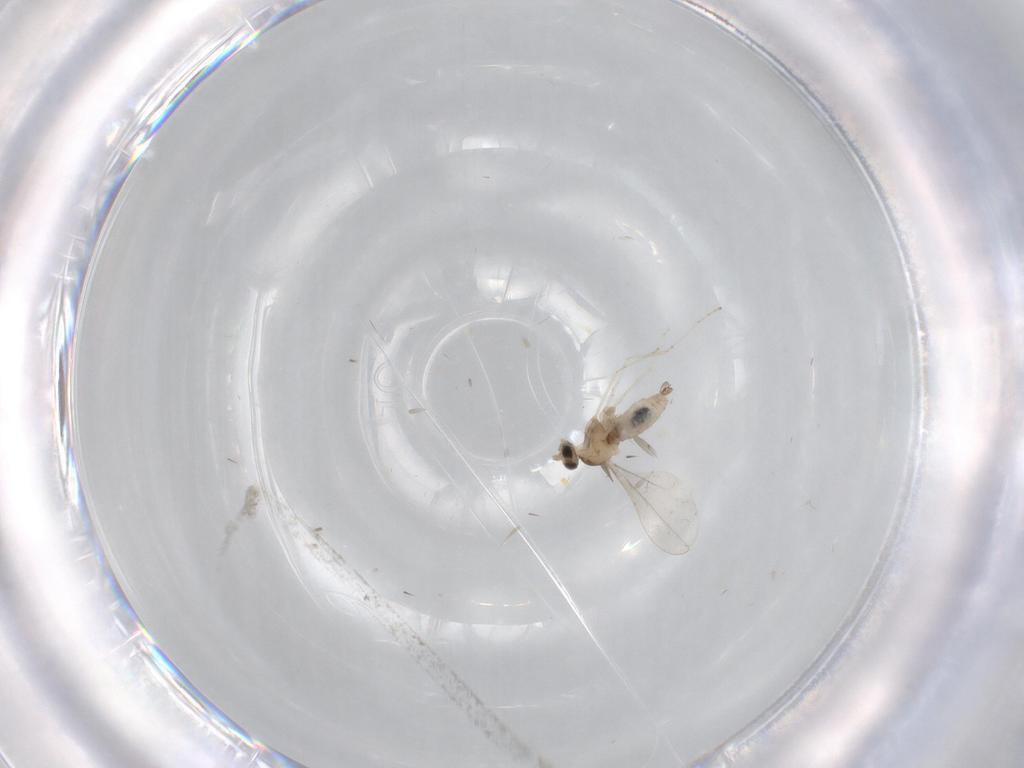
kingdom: Animalia
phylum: Arthropoda
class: Insecta
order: Diptera
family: Cecidomyiidae
